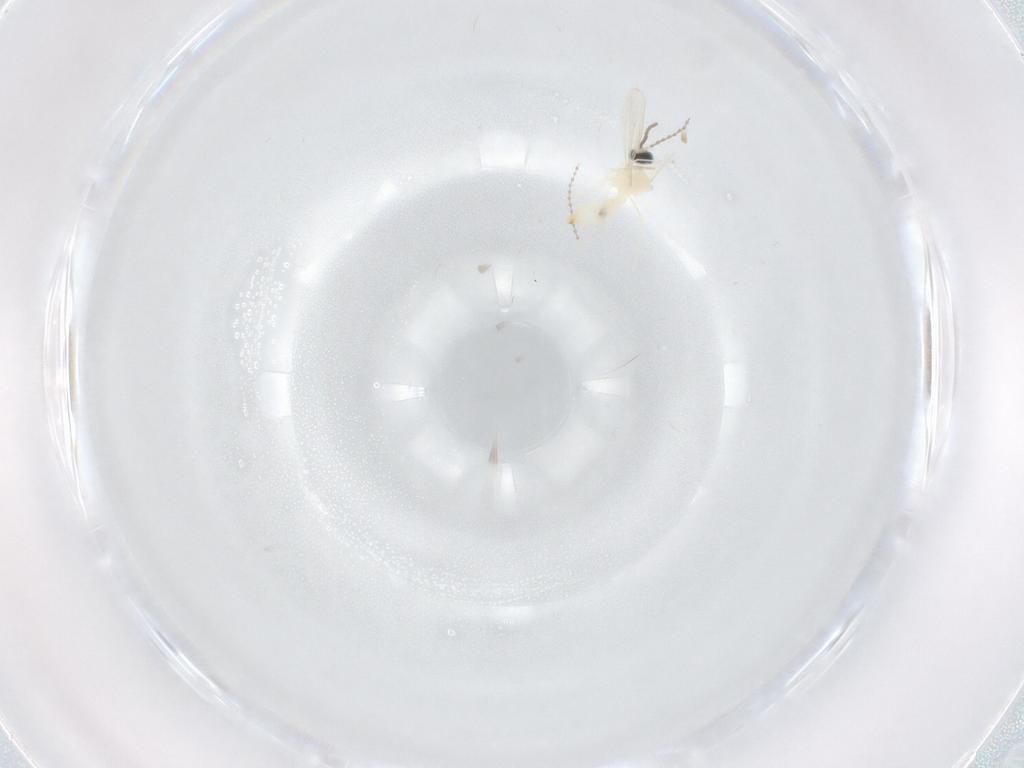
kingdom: Animalia
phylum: Arthropoda
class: Insecta
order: Diptera
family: Cecidomyiidae
